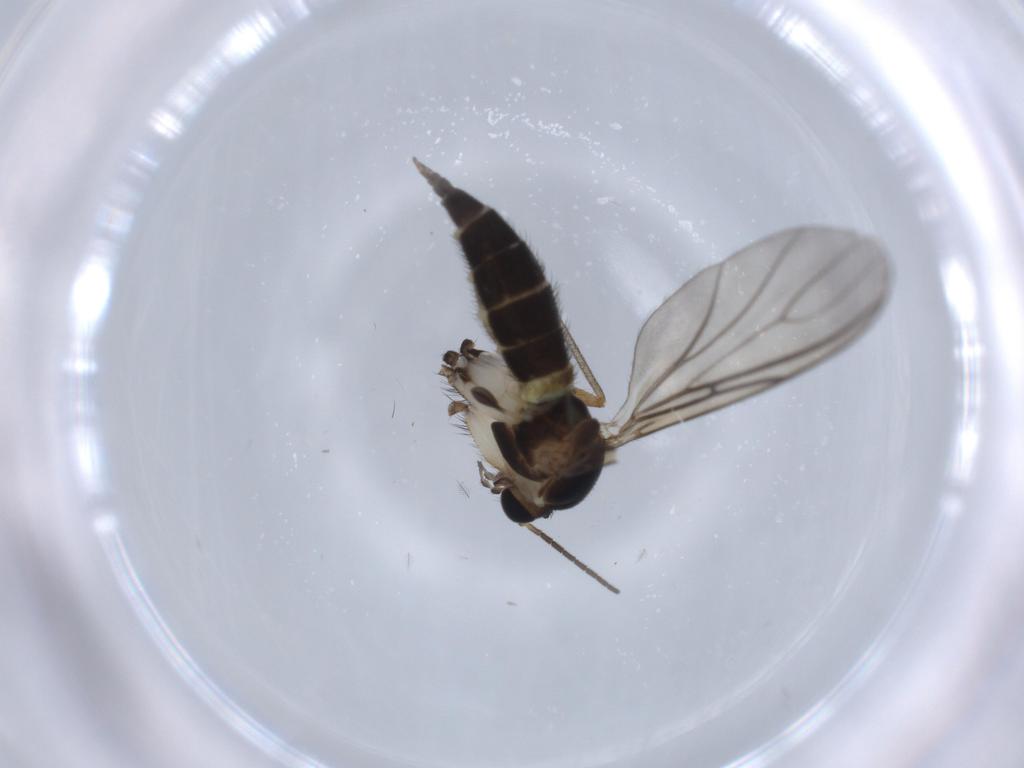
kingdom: Animalia
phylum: Arthropoda
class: Insecta
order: Diptera
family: Sciaridae
